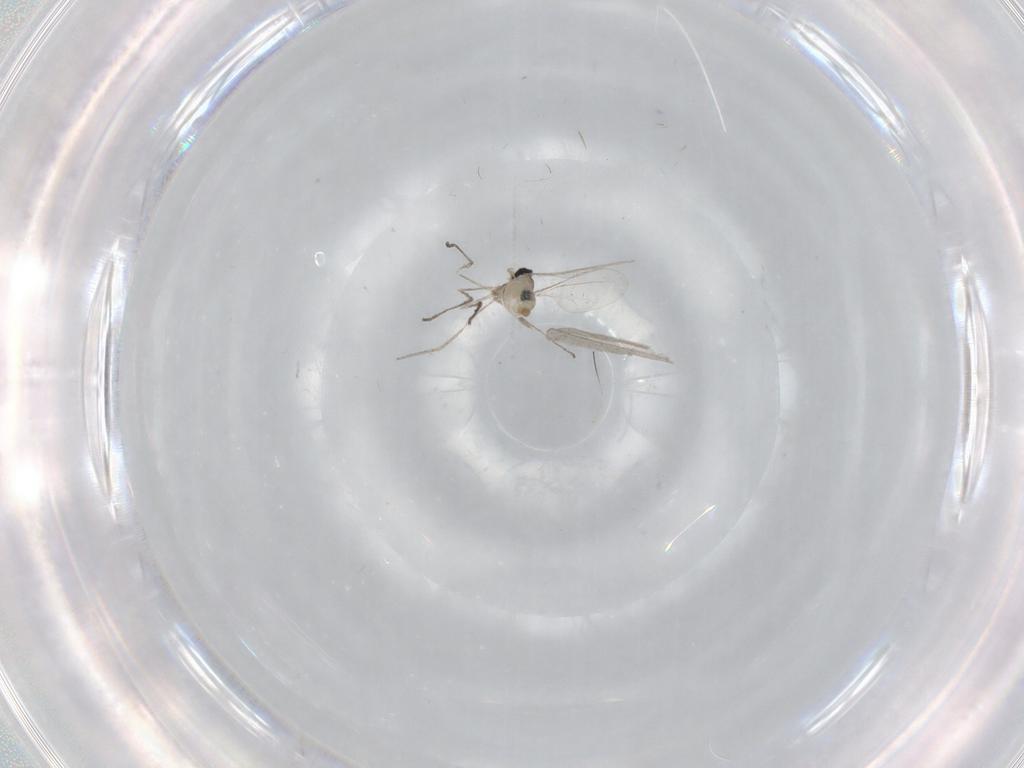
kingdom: Animalia
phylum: Arthropoda
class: Insecta
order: Diptera
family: Cecidomyiidae
